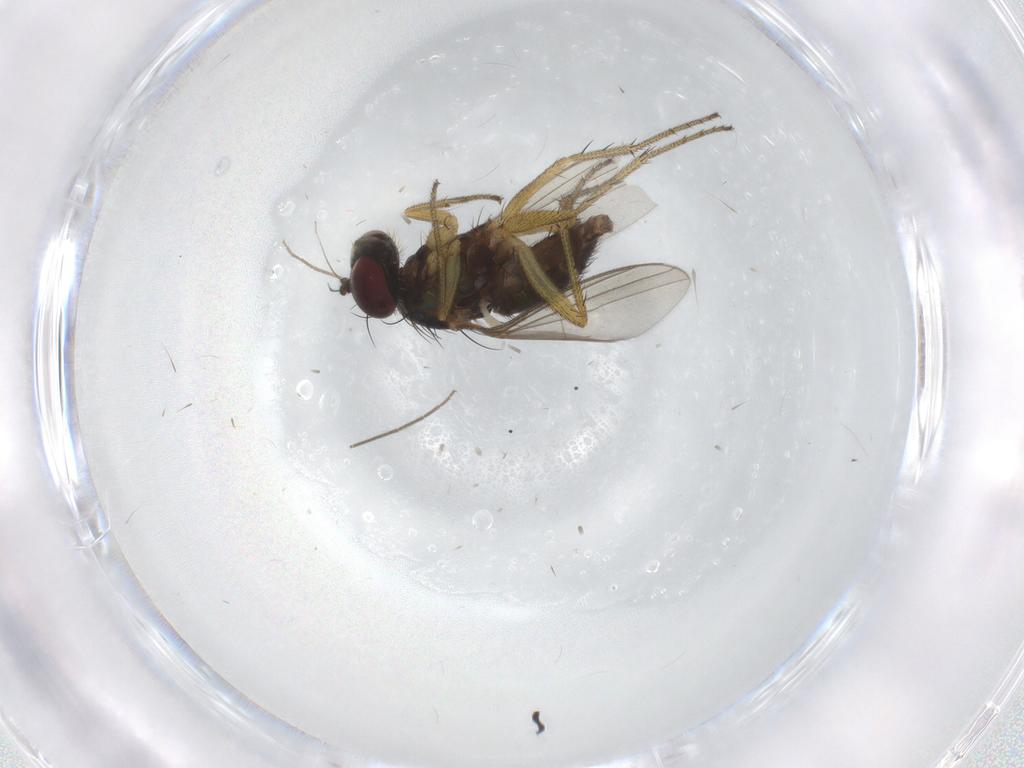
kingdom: Animalia
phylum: Arthropoda
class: Insecta
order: Diptera
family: Chironomidae
